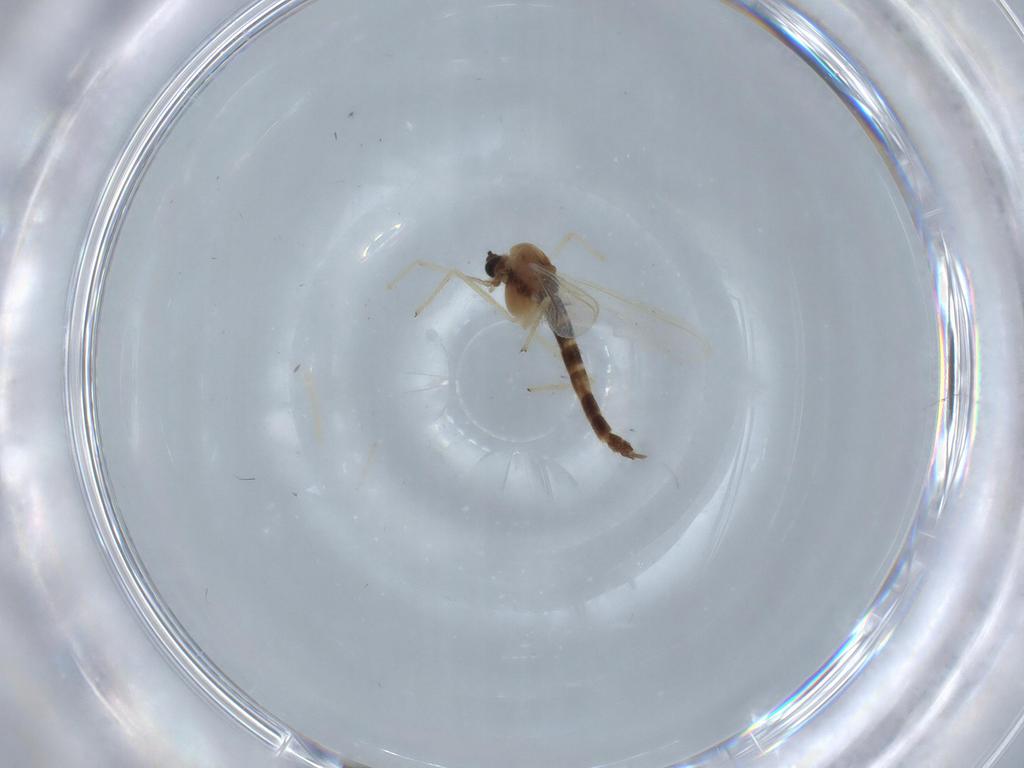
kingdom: Animalia
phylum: Arthropoda
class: Insecta
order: Diptera
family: Chironomidae
